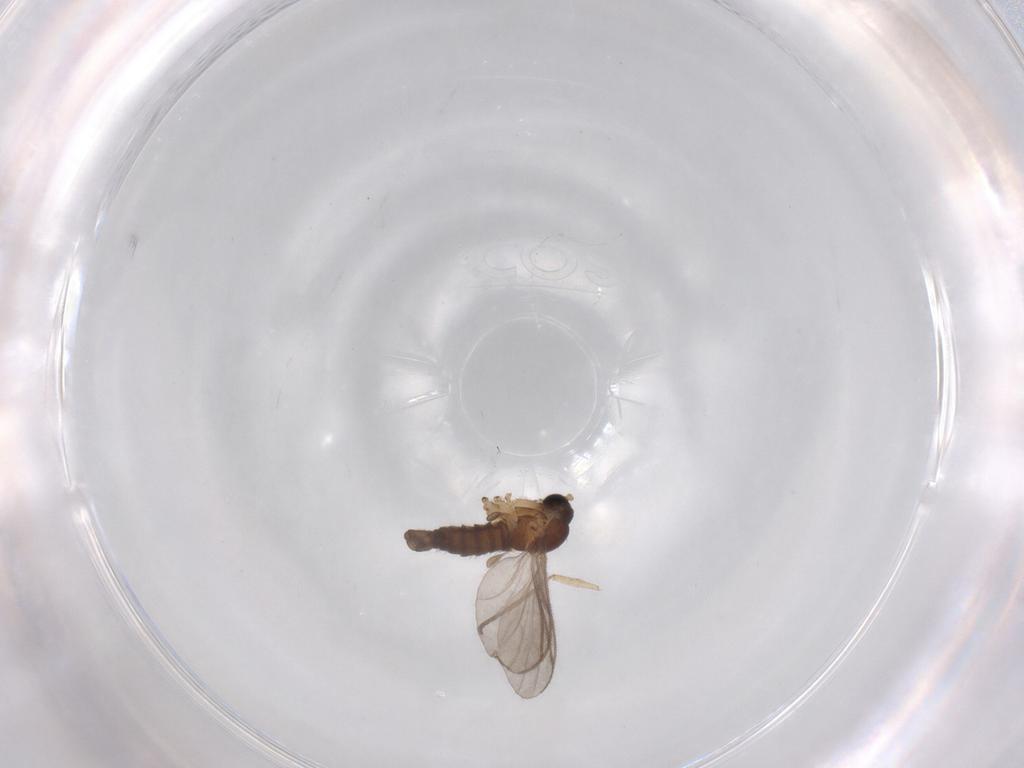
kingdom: Animalia
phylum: Arthropoda
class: Insecta
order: Diptera
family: Sciaridae
